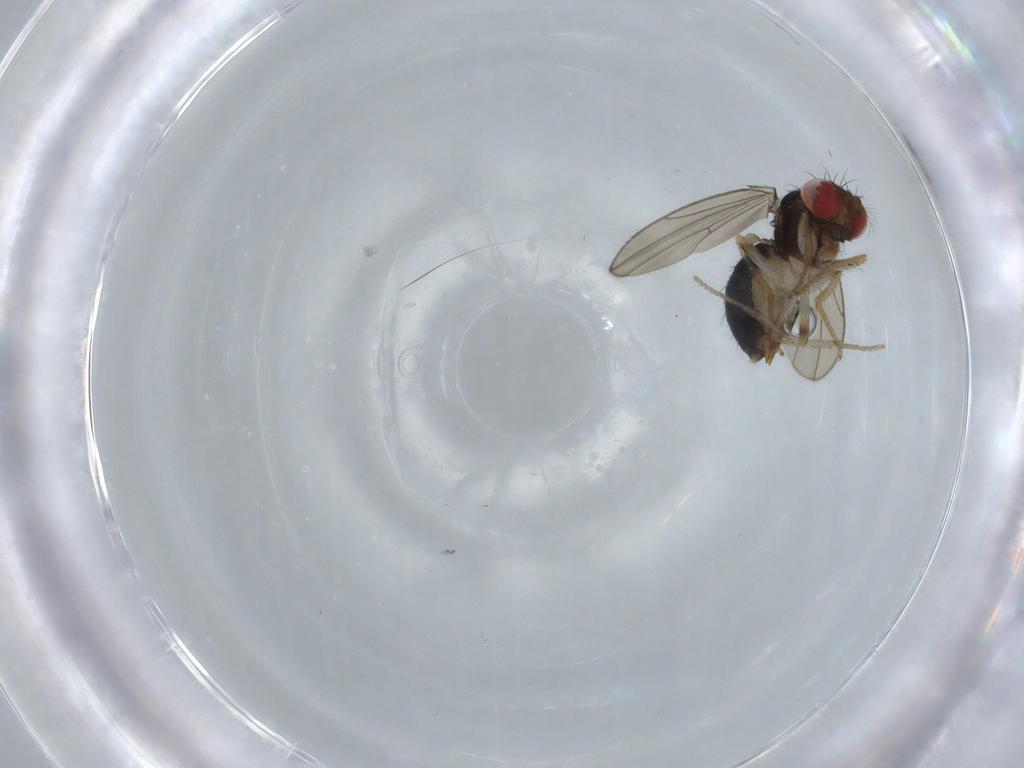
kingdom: Animalia
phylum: Arthropoda
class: Insecta
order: Diptera
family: Drosophilidae
